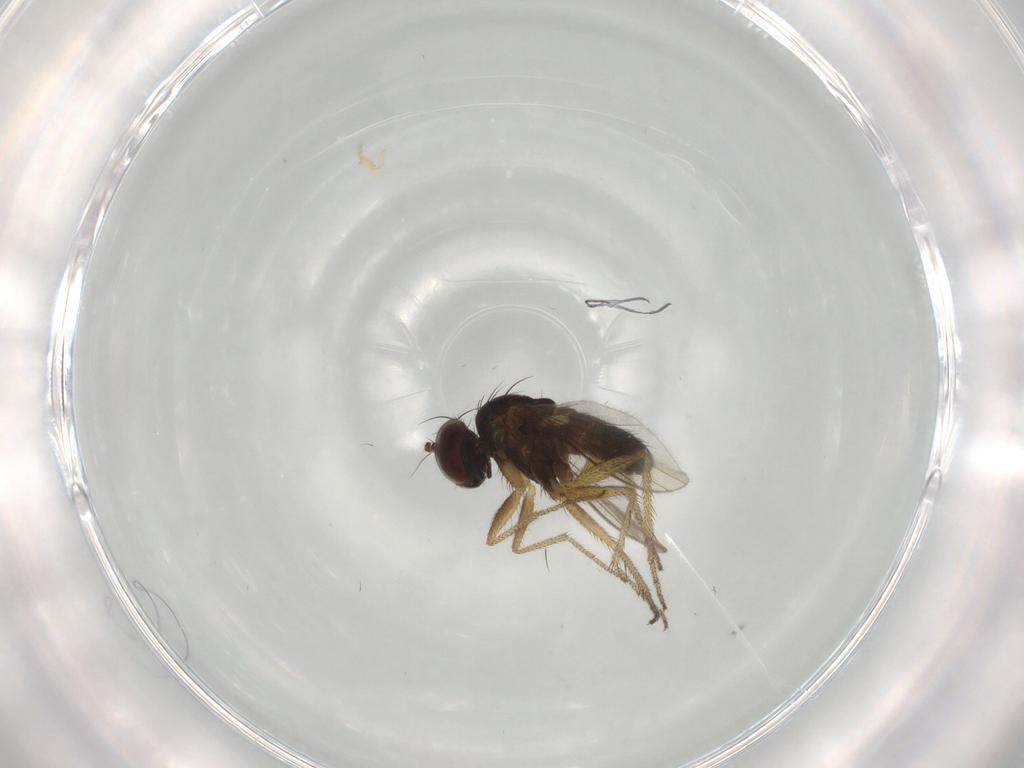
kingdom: Animalia
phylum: Arthropoda
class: Insecta
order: Diptera
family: Dolichopodidae
